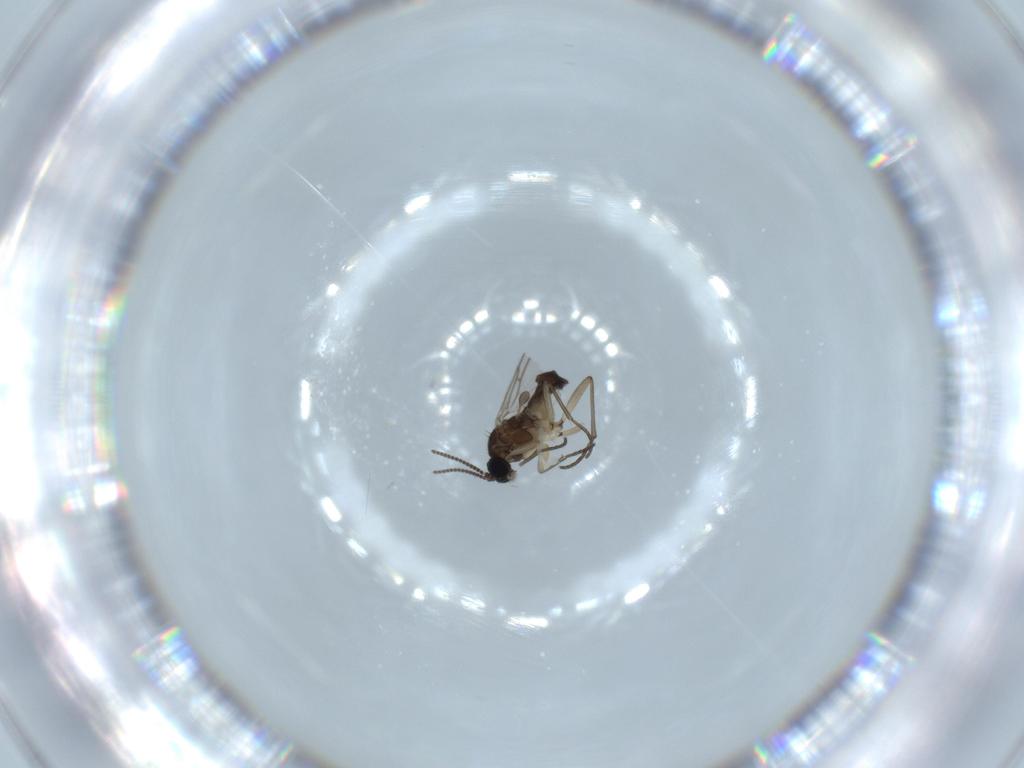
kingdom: Animalia
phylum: Arthropoda
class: Insecta
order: Diptera
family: Sciaridae
